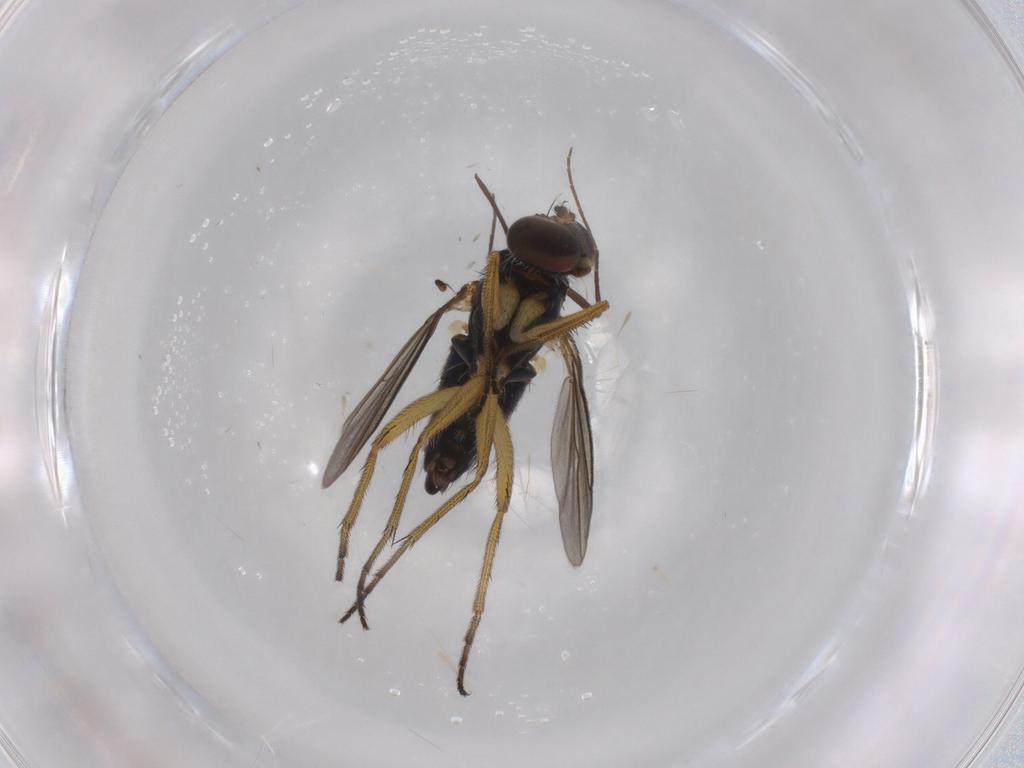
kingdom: Animalia
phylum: Arthropoda
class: Insecta
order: Diptera
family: Dolichopodidae
